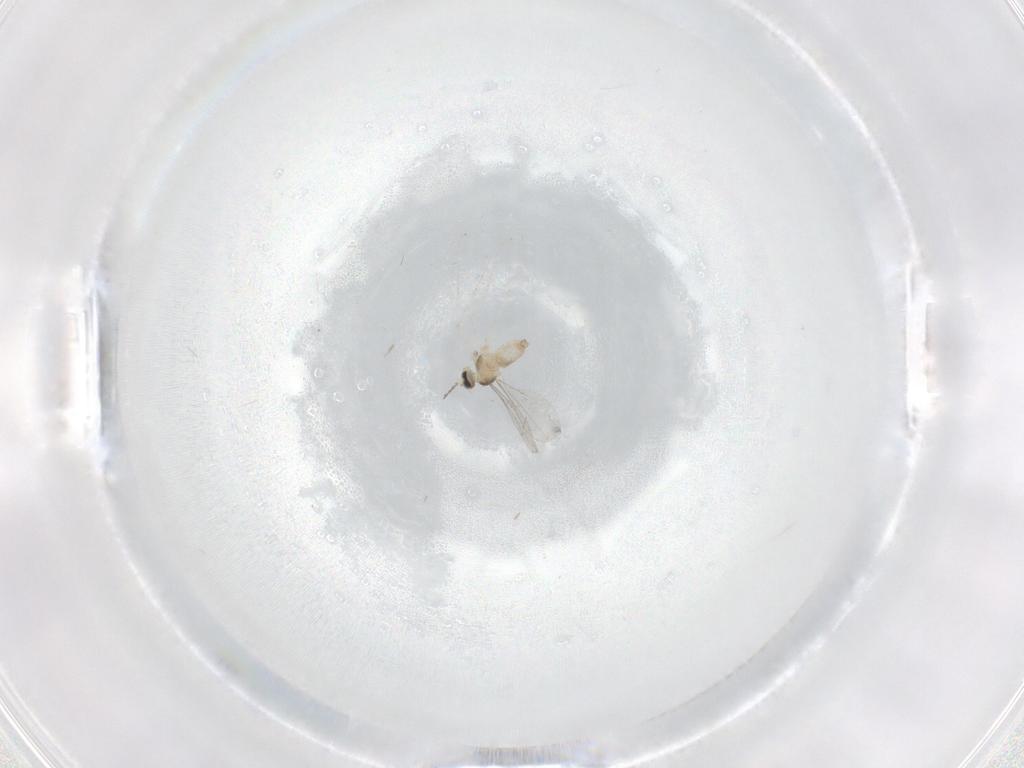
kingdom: Animalia
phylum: Arthropoda
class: Insecta
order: Diptera
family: Cecidomyiidae
